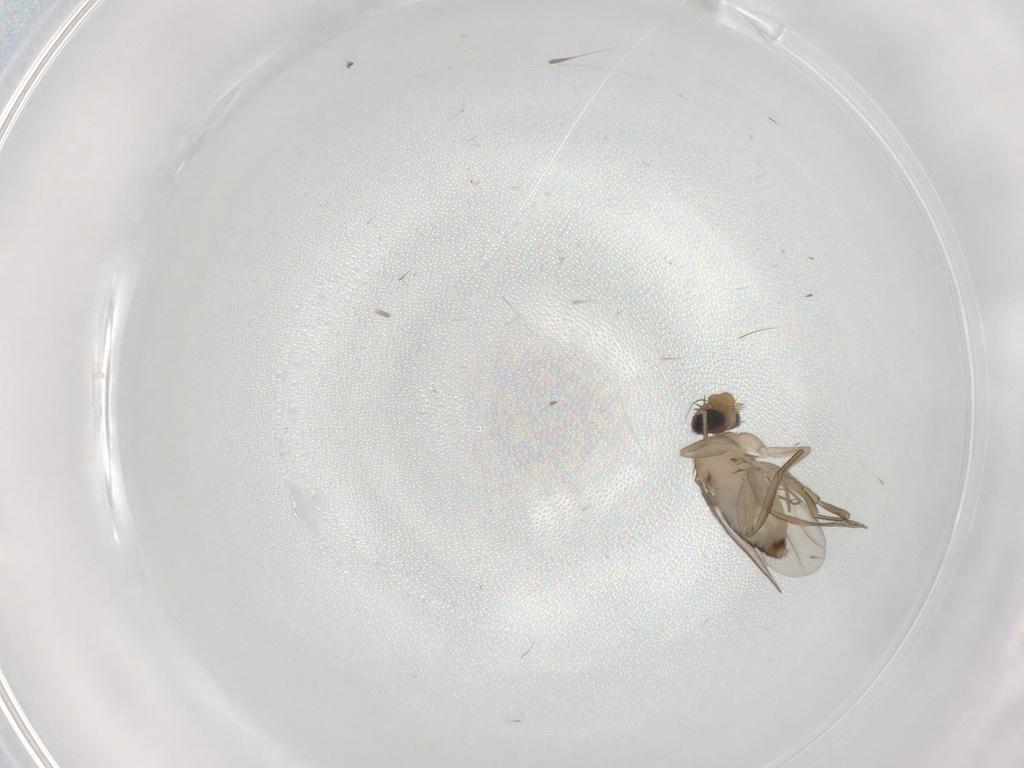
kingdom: Animalia
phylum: Arthropoda
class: Insecta
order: Diptera
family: Phoridae
